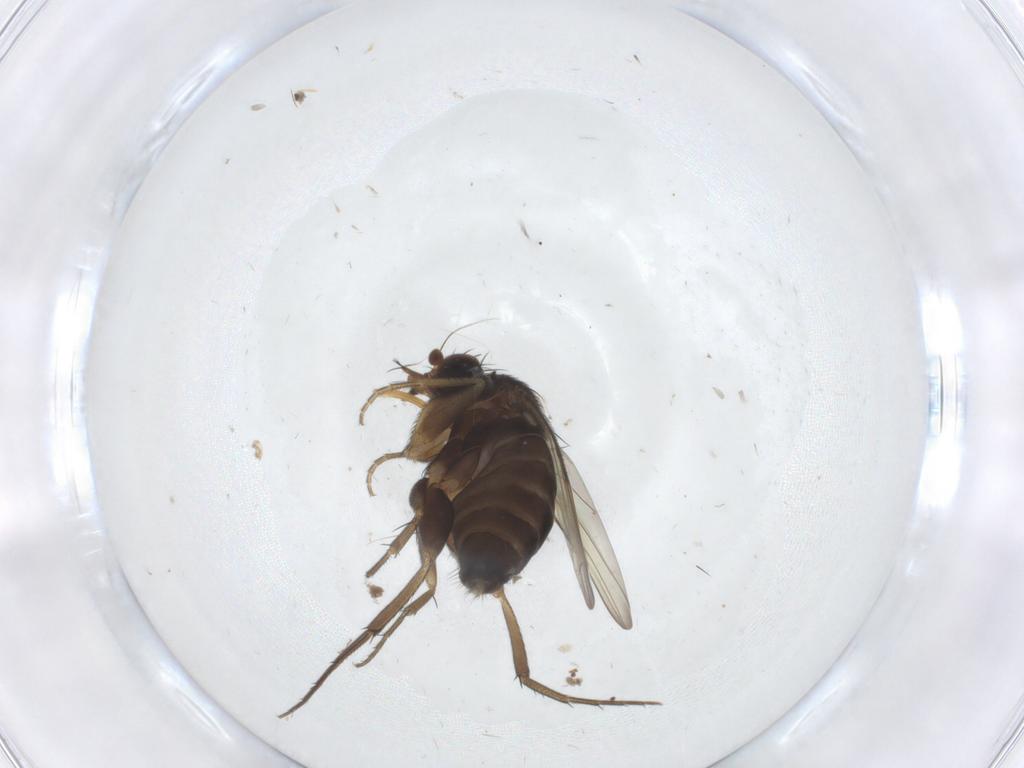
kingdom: Animalia
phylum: Arthropoda
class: Insecta
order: Diptera
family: Phoridae
